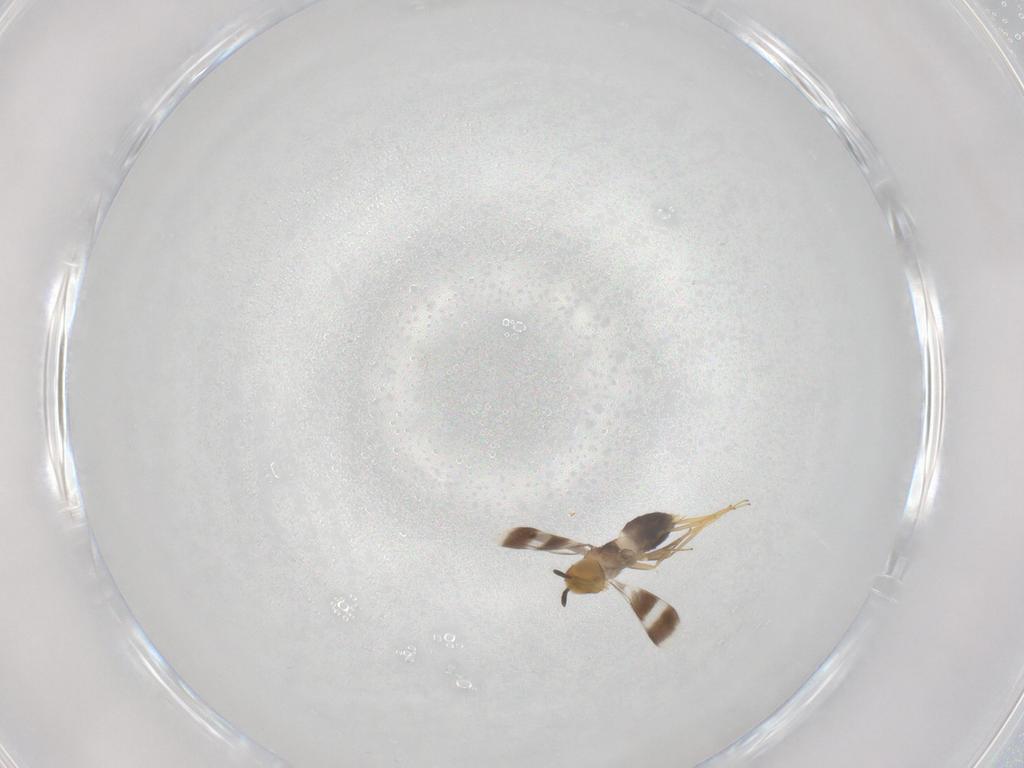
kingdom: Animalia
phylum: Arthropoda
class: Insecta
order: Hymenoptera
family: Aphelinidae
